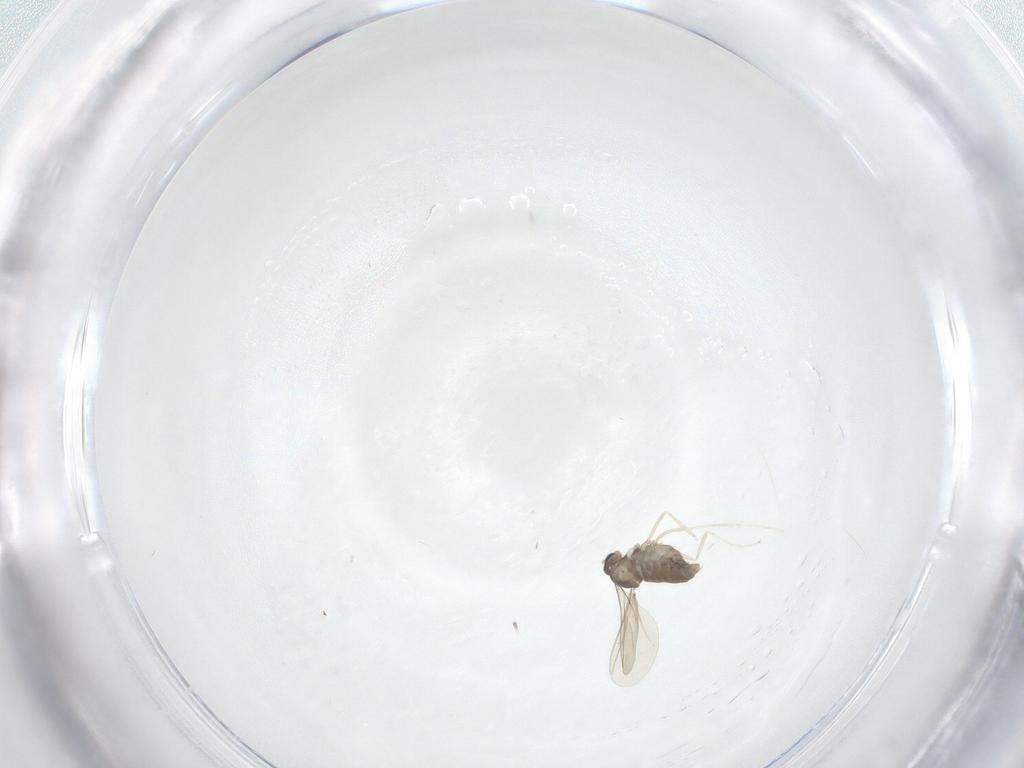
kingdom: Animalia
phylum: Arthropoda
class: Insecta
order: Diptera
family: Cecidomyiidae
